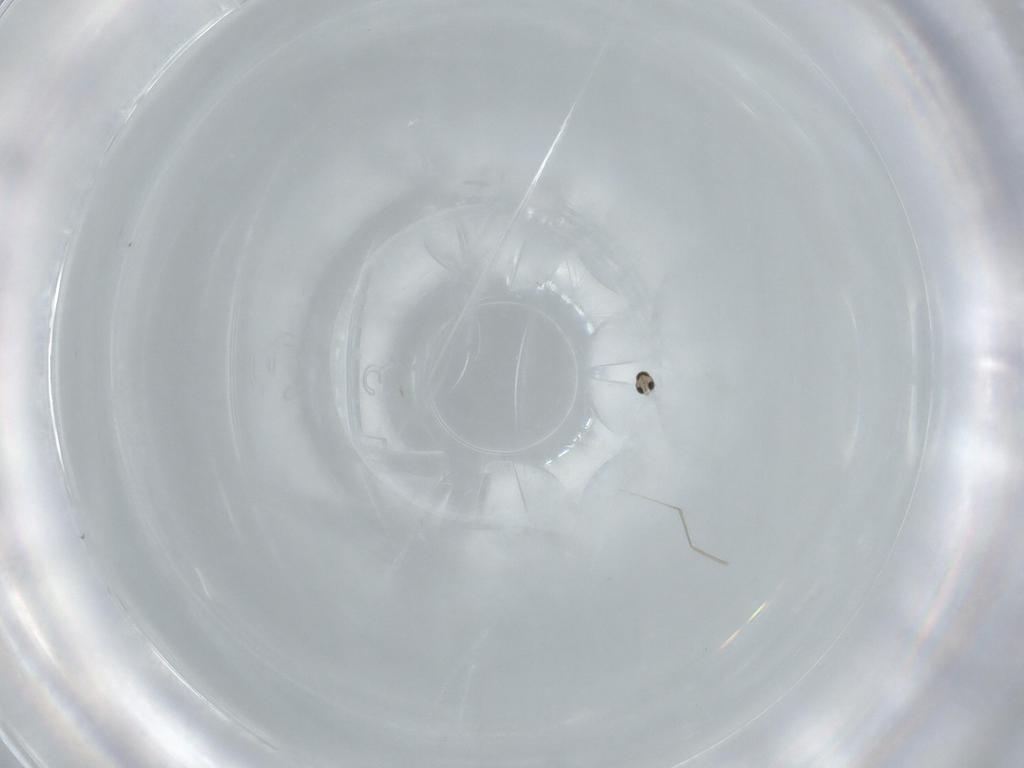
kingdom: Animalia
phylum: Arthropoda
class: Insecta
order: Diptera
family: Cecidomyiidae
